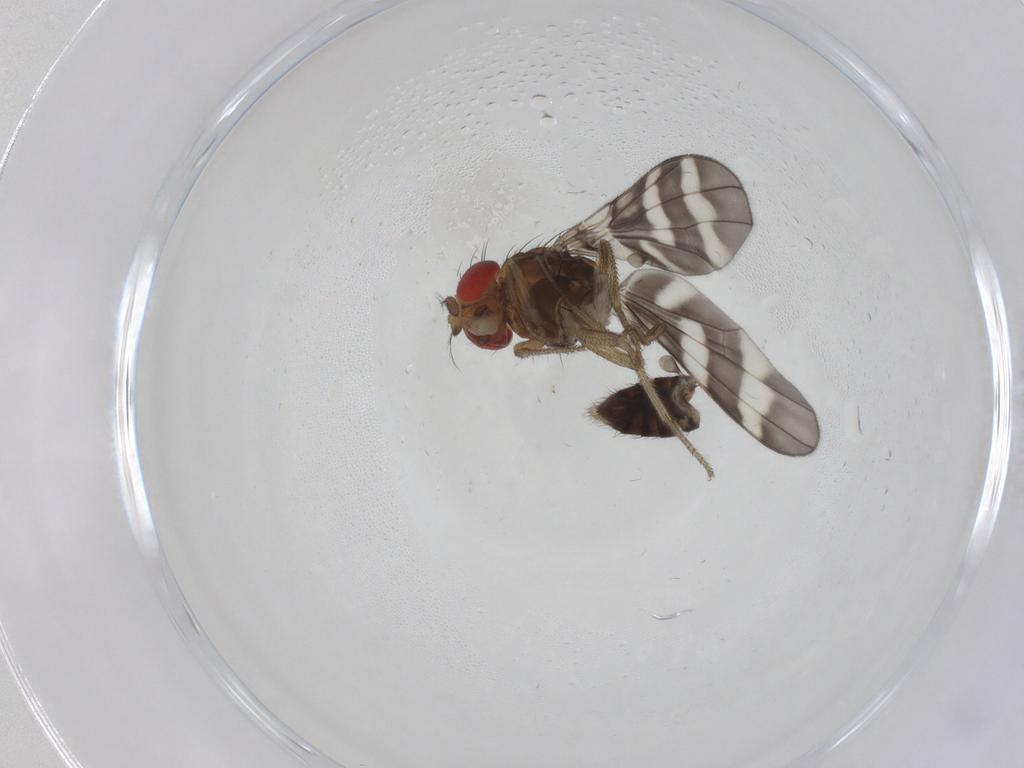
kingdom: Animalia
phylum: Arthropoda
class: Insecta
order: Diptera
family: Drosophilidae
